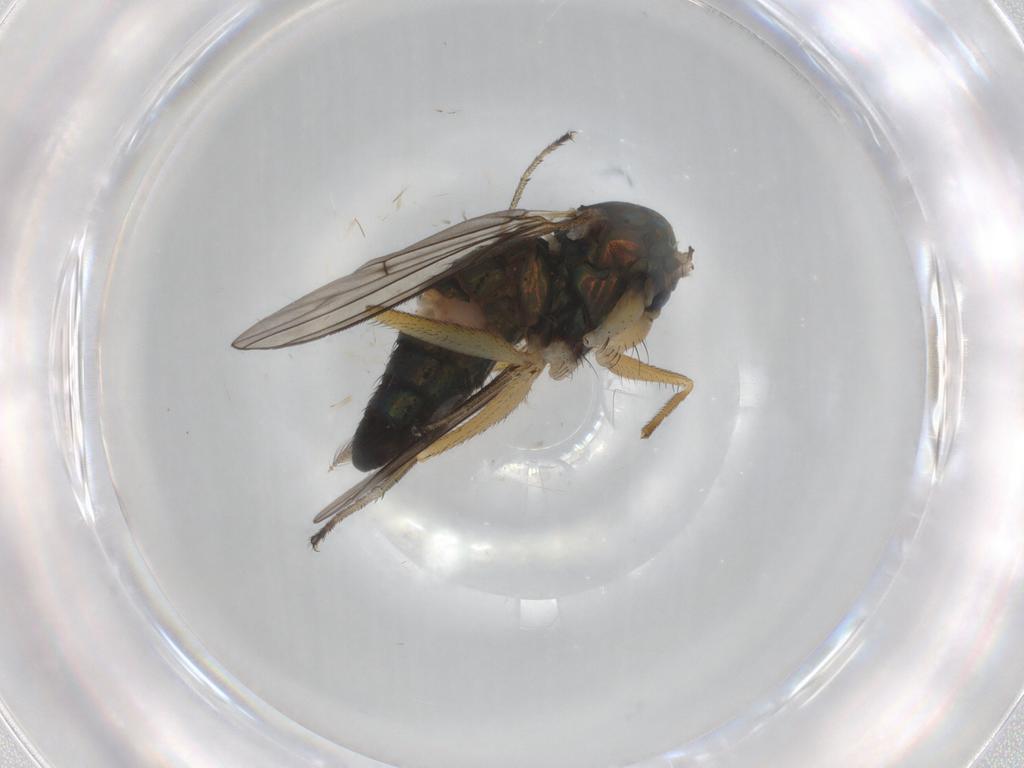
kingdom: Animalia
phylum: Arthropoda
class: Insecta
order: Diptera
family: Dolichopodidae
